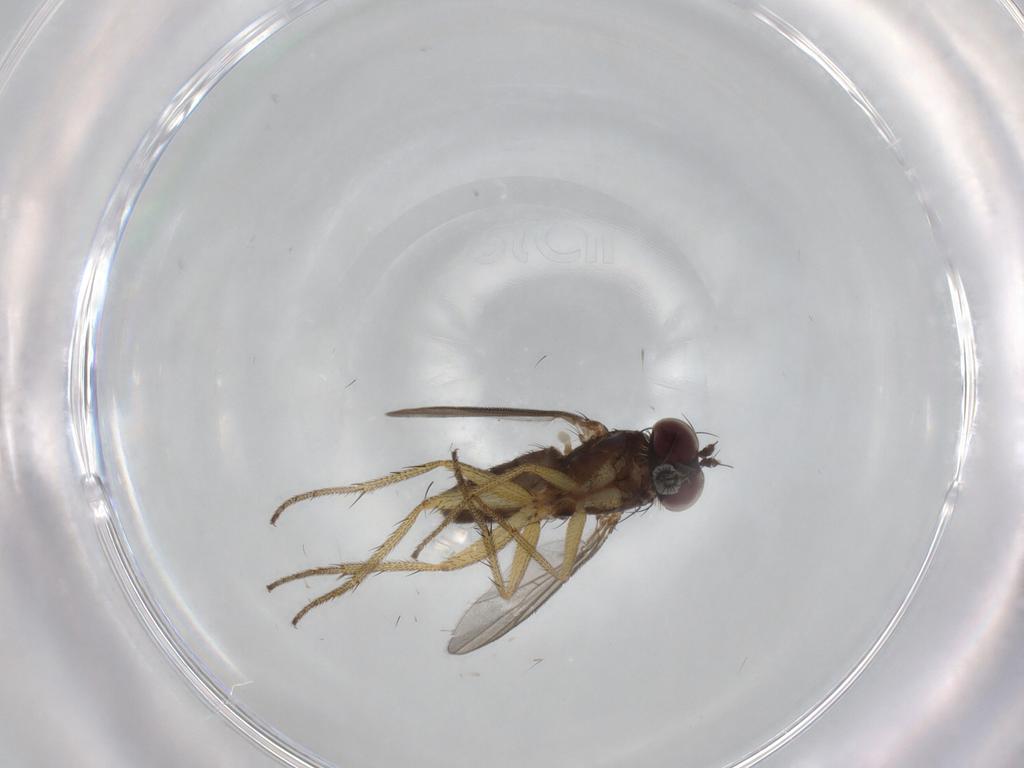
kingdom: Animalia
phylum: Arthropoda
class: Insecta
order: Diptera
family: Dolichopodidae
